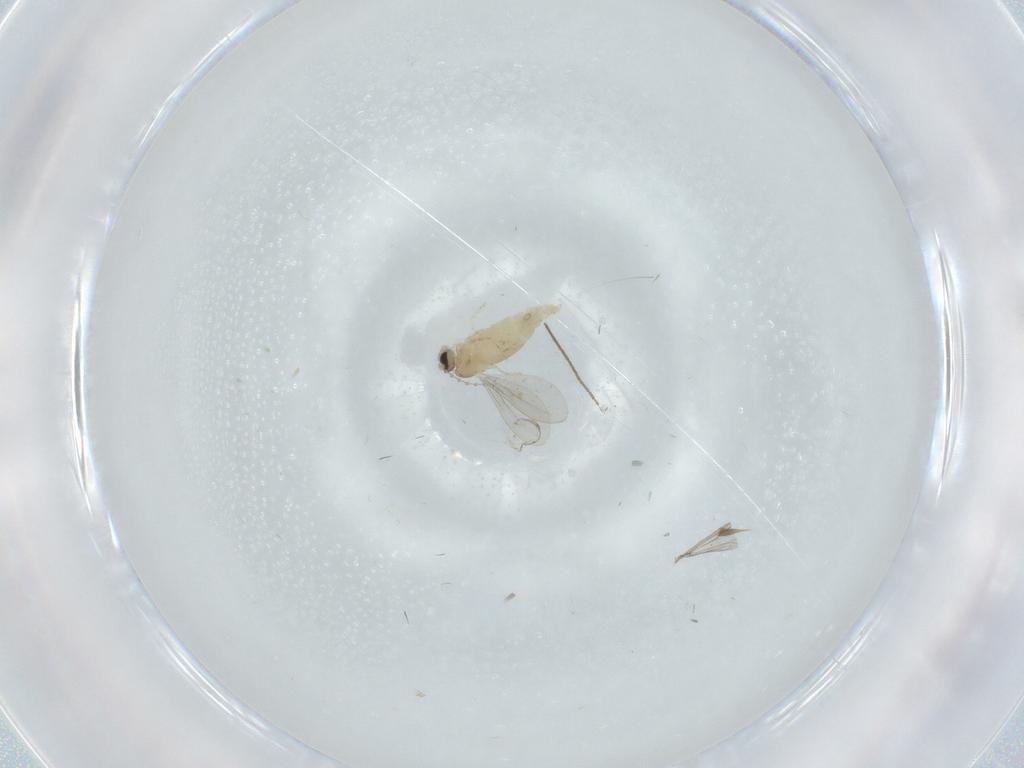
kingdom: Animalia
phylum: Arthropoda
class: Insecta
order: Diptera
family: Cecidomyiidae
